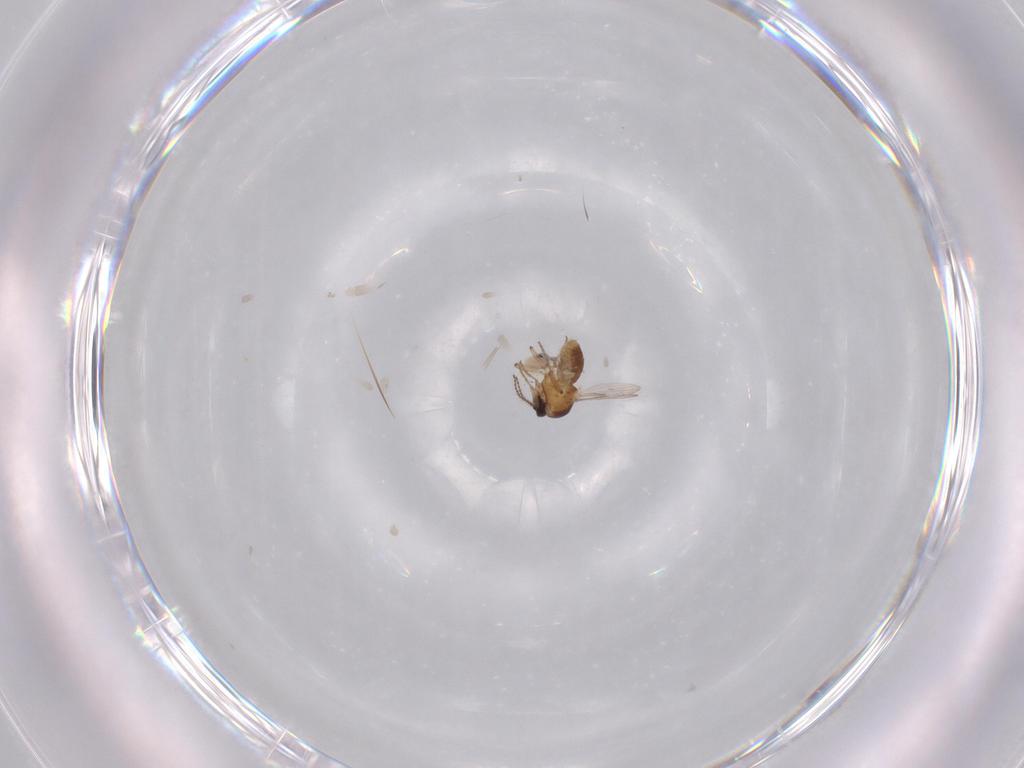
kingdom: Animalia
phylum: Arthropoda
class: Insecta
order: Diptera
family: Ceratopogonidae
